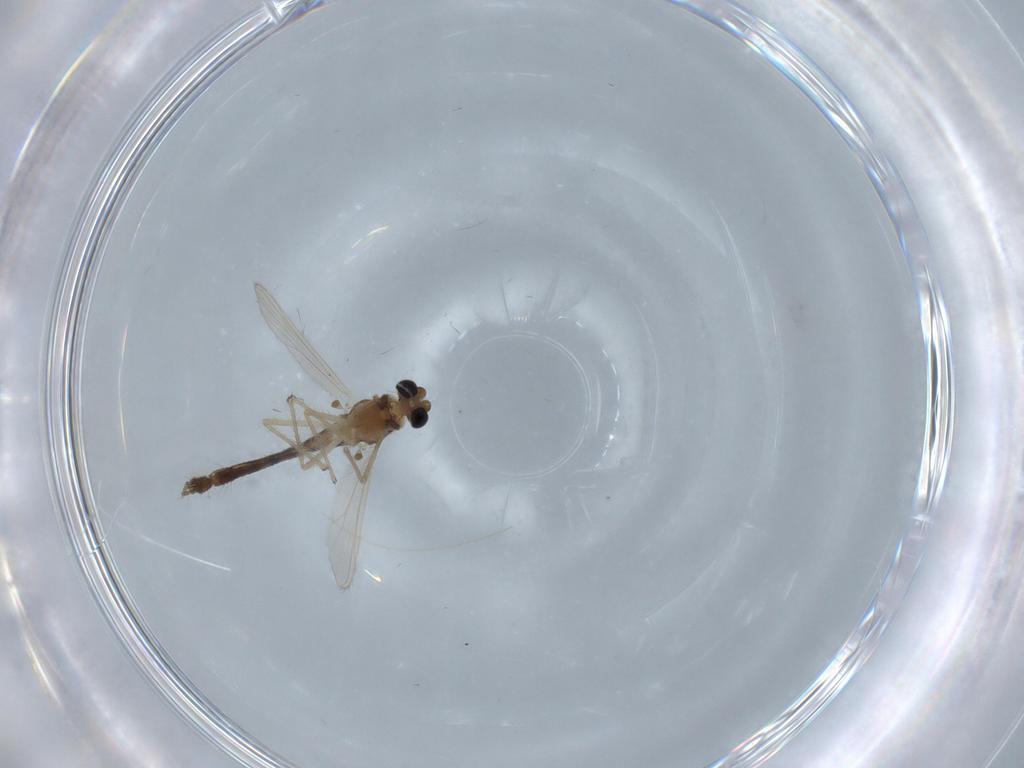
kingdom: Animalia
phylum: Arthropoda
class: Insecta
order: Diptera
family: Chironomidae
